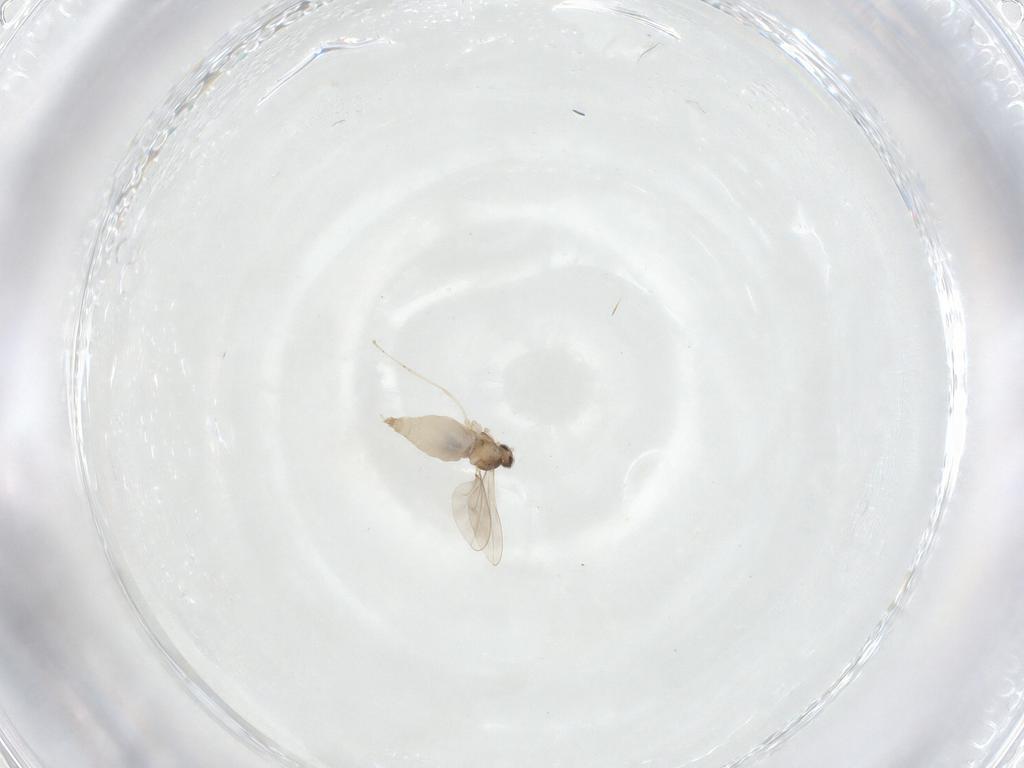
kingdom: Animalia
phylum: Arthropoda
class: Insecta
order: Diptera
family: Cecidomyiidae
